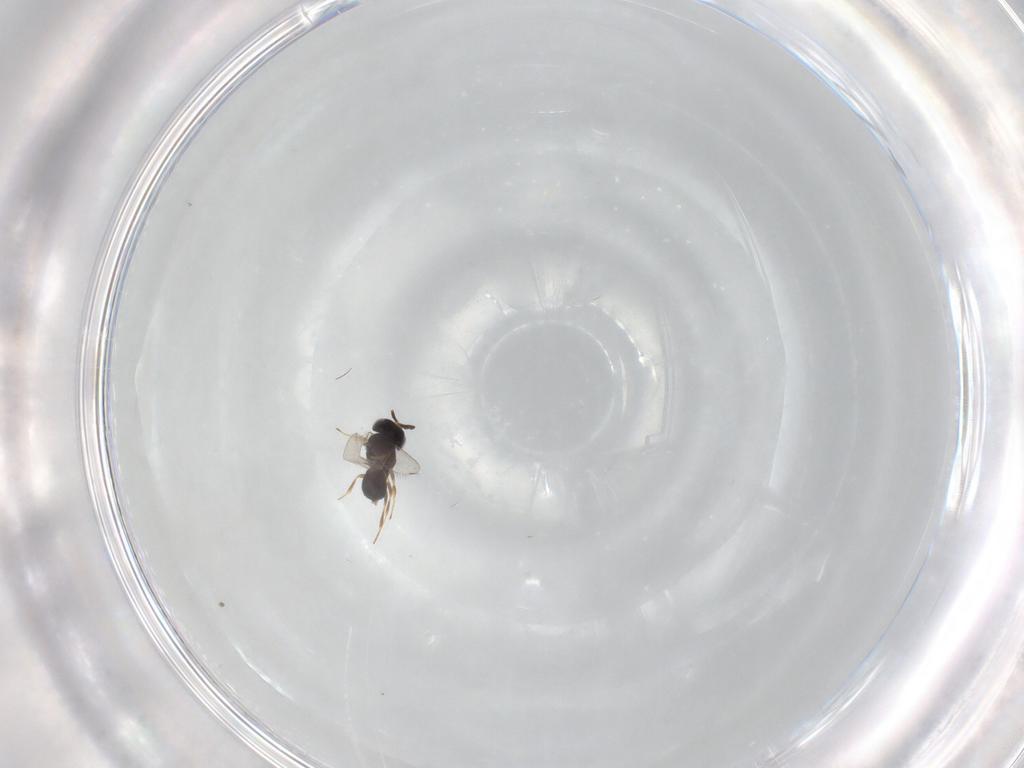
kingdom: Animalia
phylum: Arthropoda
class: Insecta
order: Hymenoptera
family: Scelionidae
